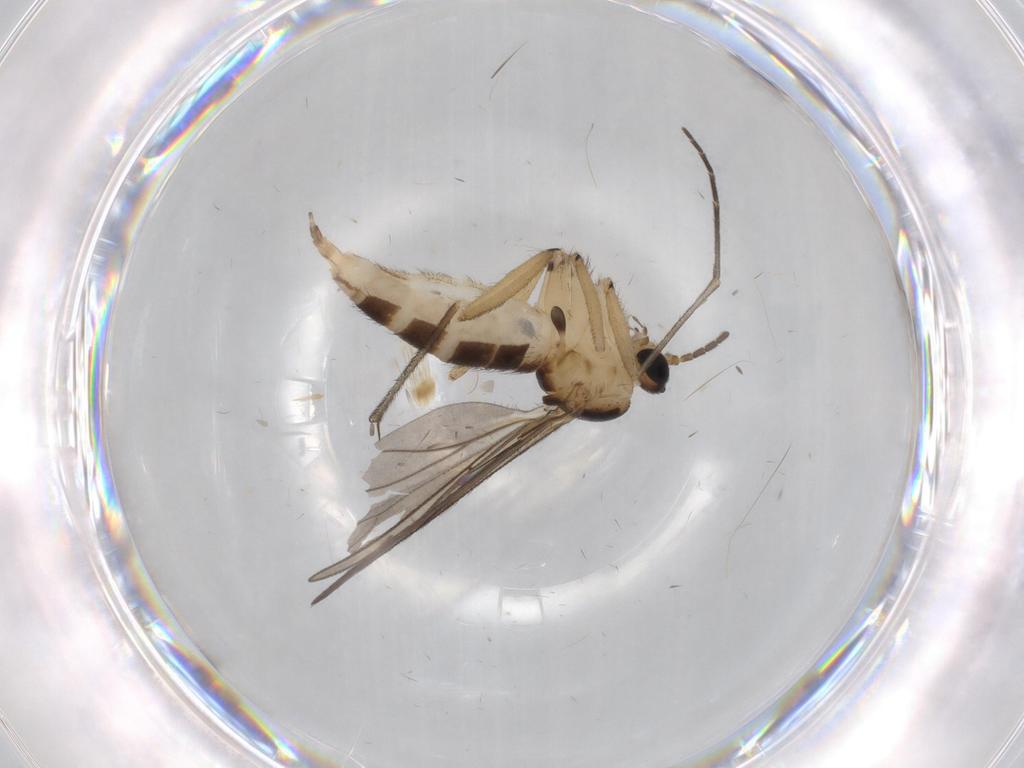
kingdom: Animalia
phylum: Arthropoda
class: Insecta
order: Diptera
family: Sciaridae
